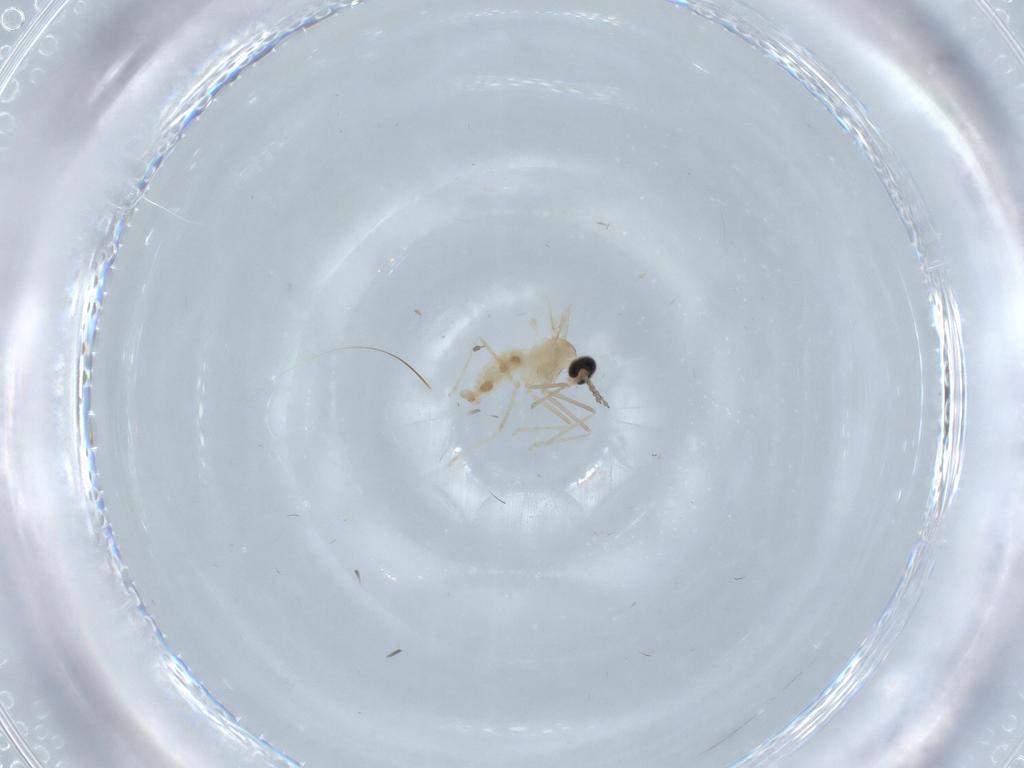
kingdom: Animalia
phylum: Arthropoda
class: Insecta
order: Diptera
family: Cecidomyiidae
